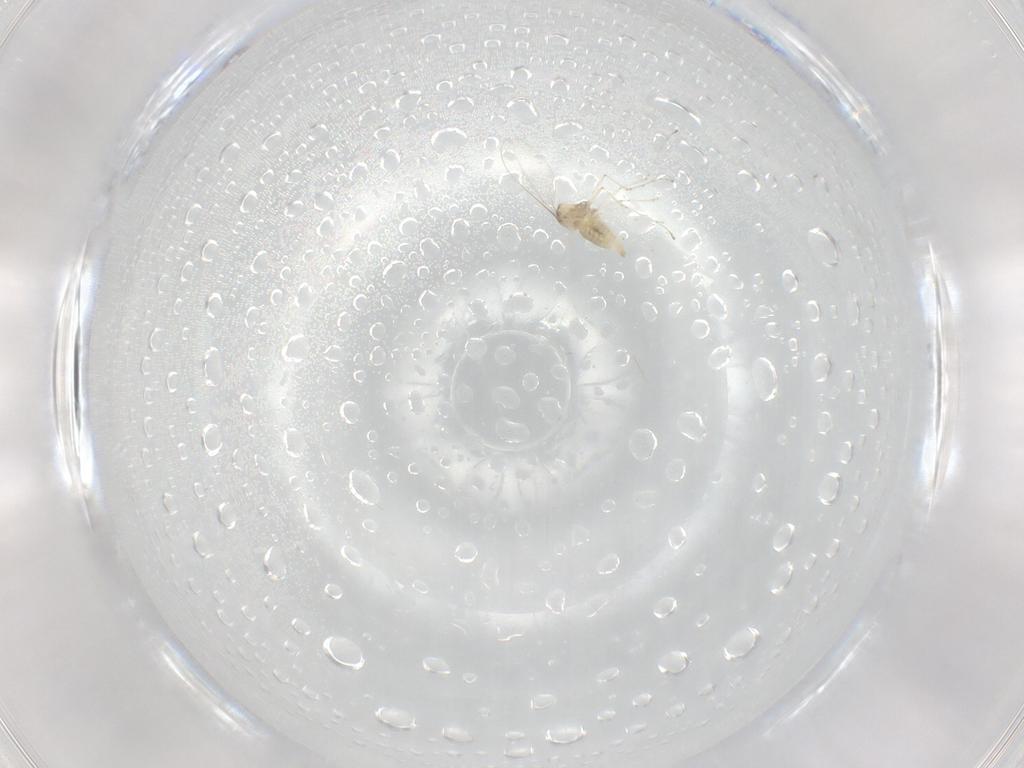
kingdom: Animalia
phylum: Arthropoda
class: Insecta
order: Diptera
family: Cecidomyiidae
